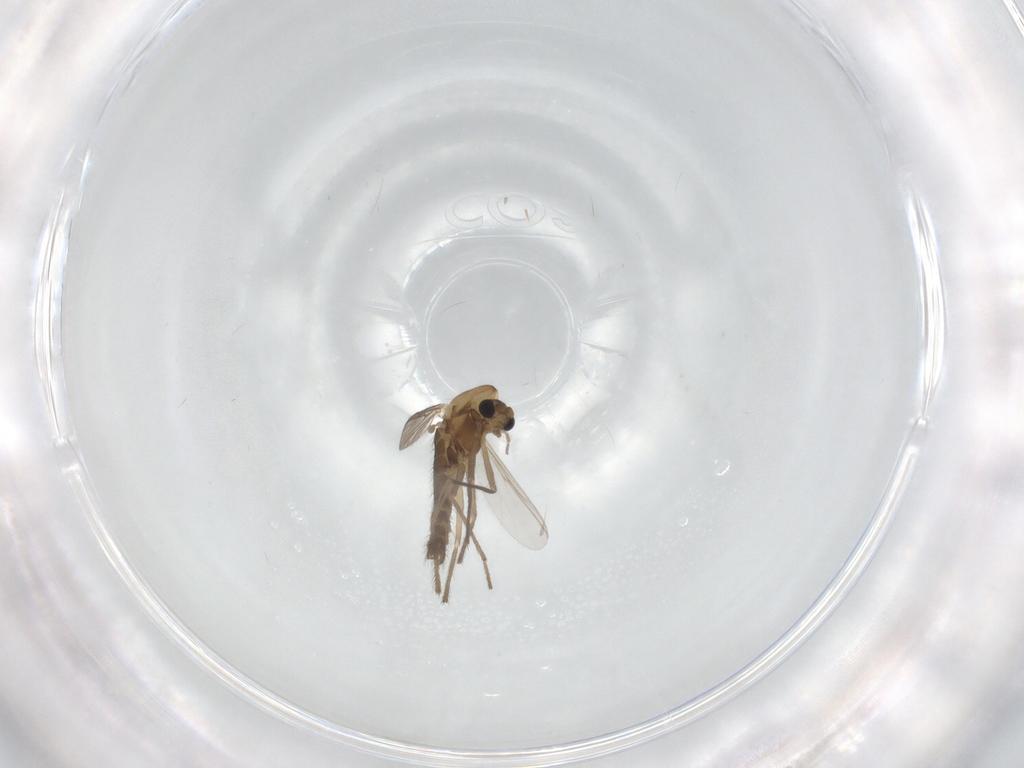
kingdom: Animalia
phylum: Arthropoda
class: Insecta
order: Diptera
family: Chironomidae
